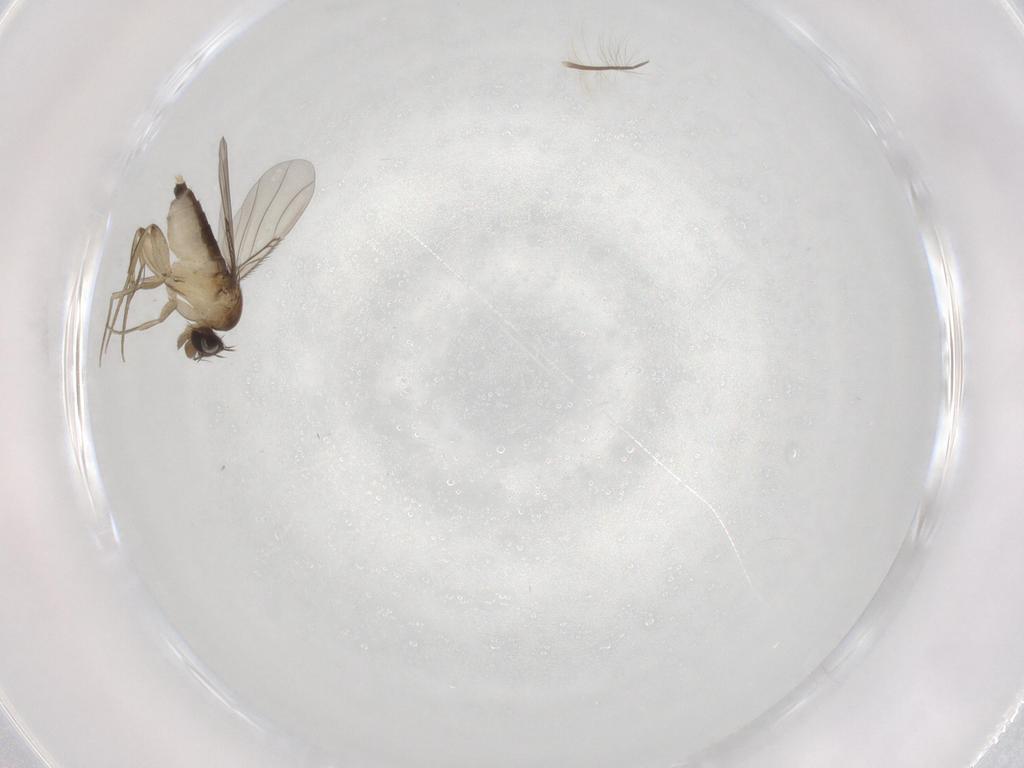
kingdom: Animalia
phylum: Arthropoda
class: Insecta
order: Diptera
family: Phoridae
